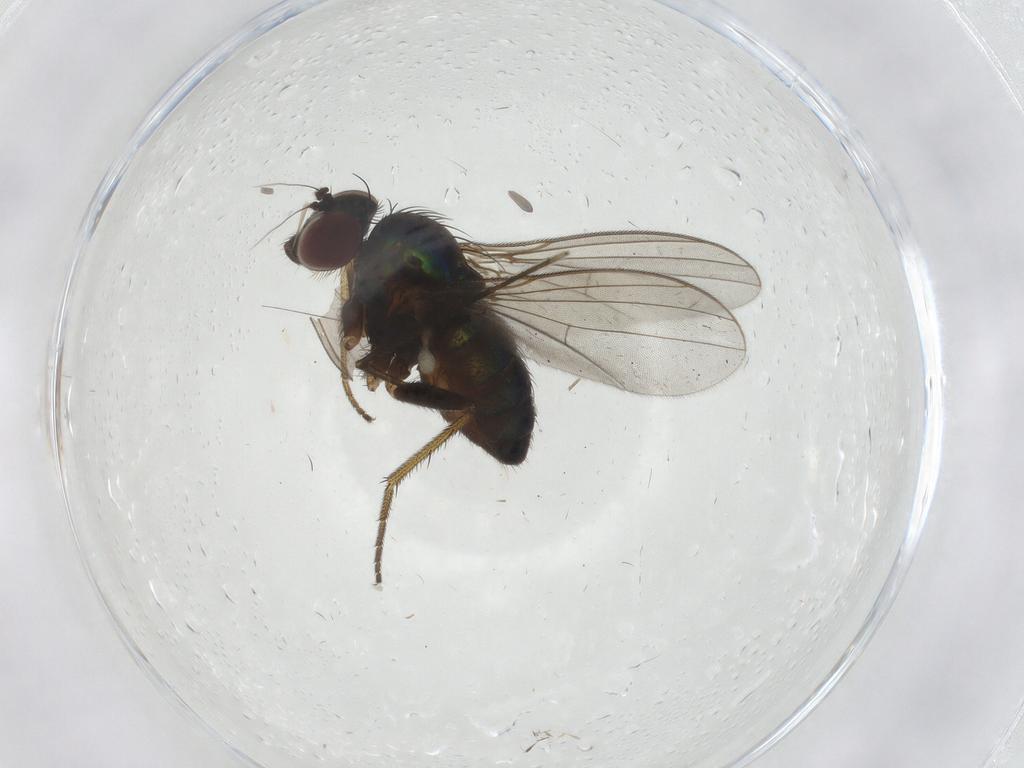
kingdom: Animalia
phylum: Arthropoda
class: Insecta
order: Diptera
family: Cecidomyiidae
